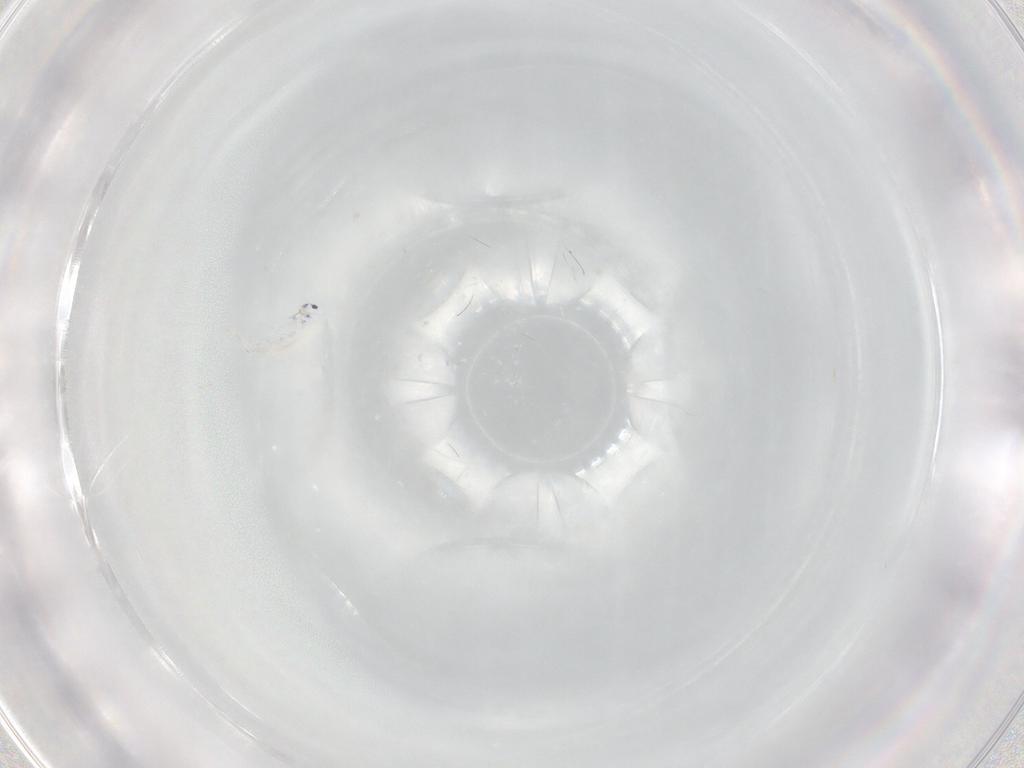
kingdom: Animalia
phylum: Arthropoda
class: Collembola
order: Entomobryomorpha
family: Entomobryidae
